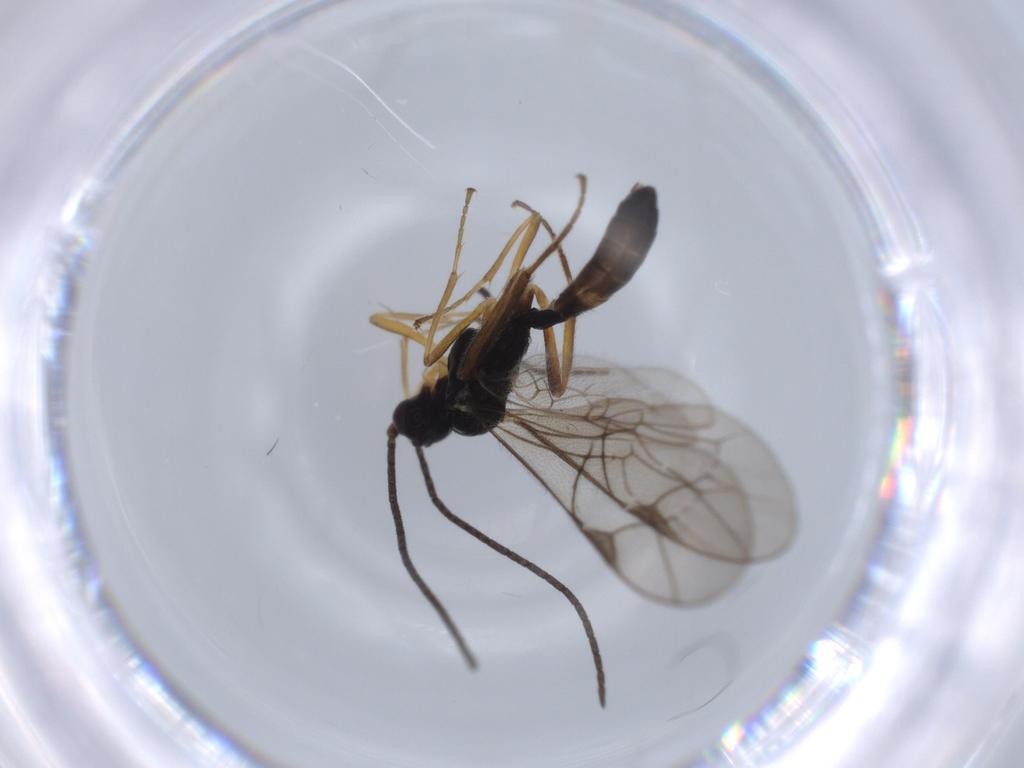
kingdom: Animalia
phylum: Arthropoda
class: Insecta
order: Hymenoptera
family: Ichneumonidae
